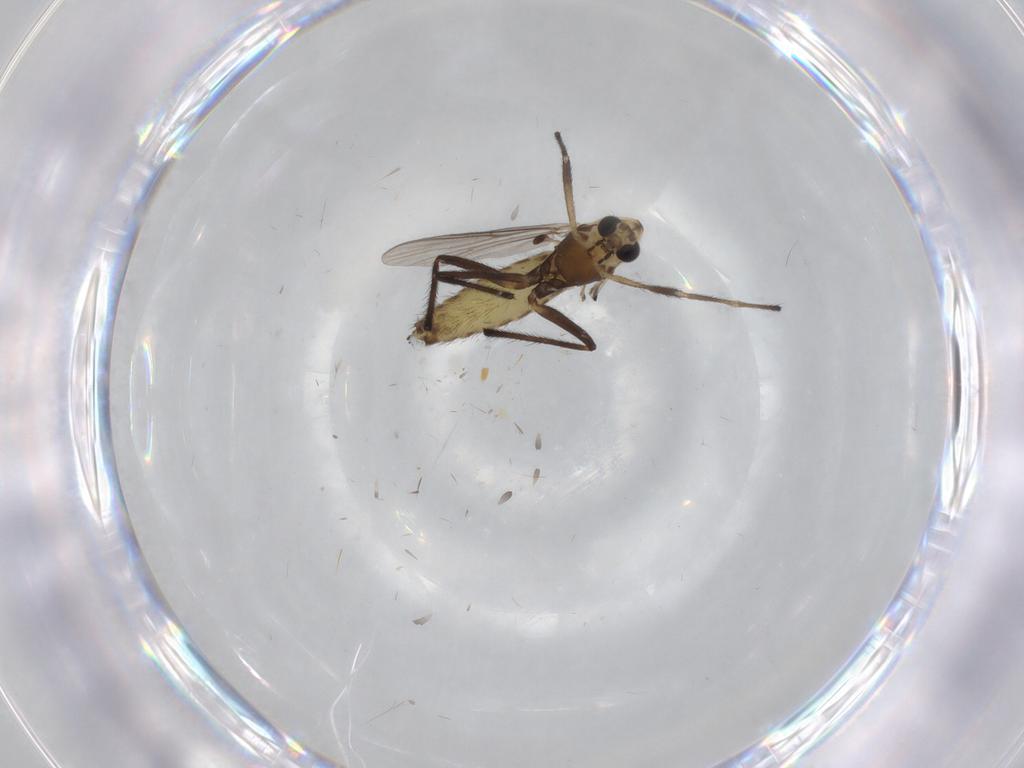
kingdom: Animalia
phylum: Arthropoda
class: Insecta
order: Diptera
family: Chironomidae
